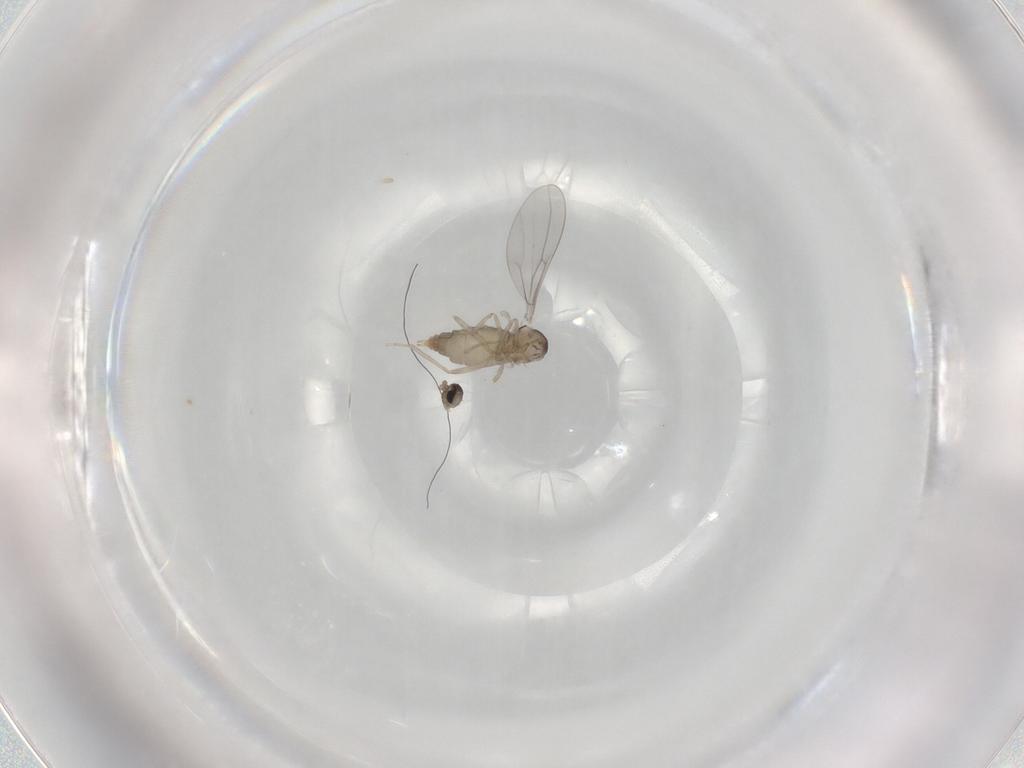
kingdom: Animalia
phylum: Arthropoda
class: Insecta
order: Diptera
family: Cecidomyiidae
